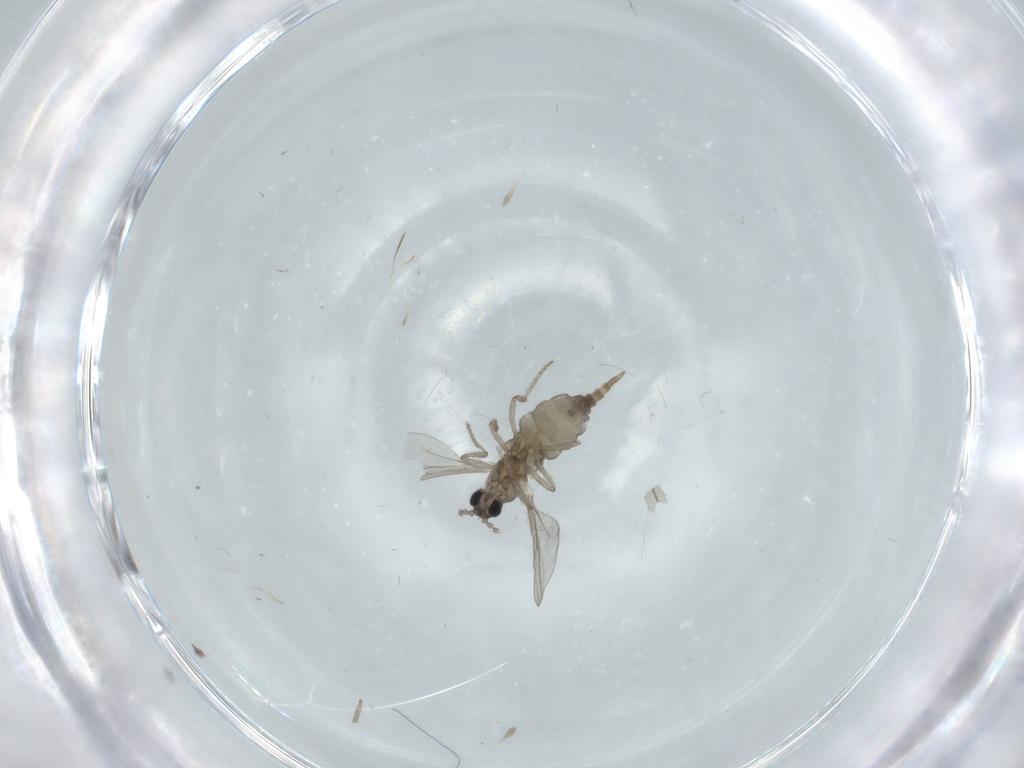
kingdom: Animalia
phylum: Arthropoda
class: Insecta
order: Diptera
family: Cecidomyiidae
